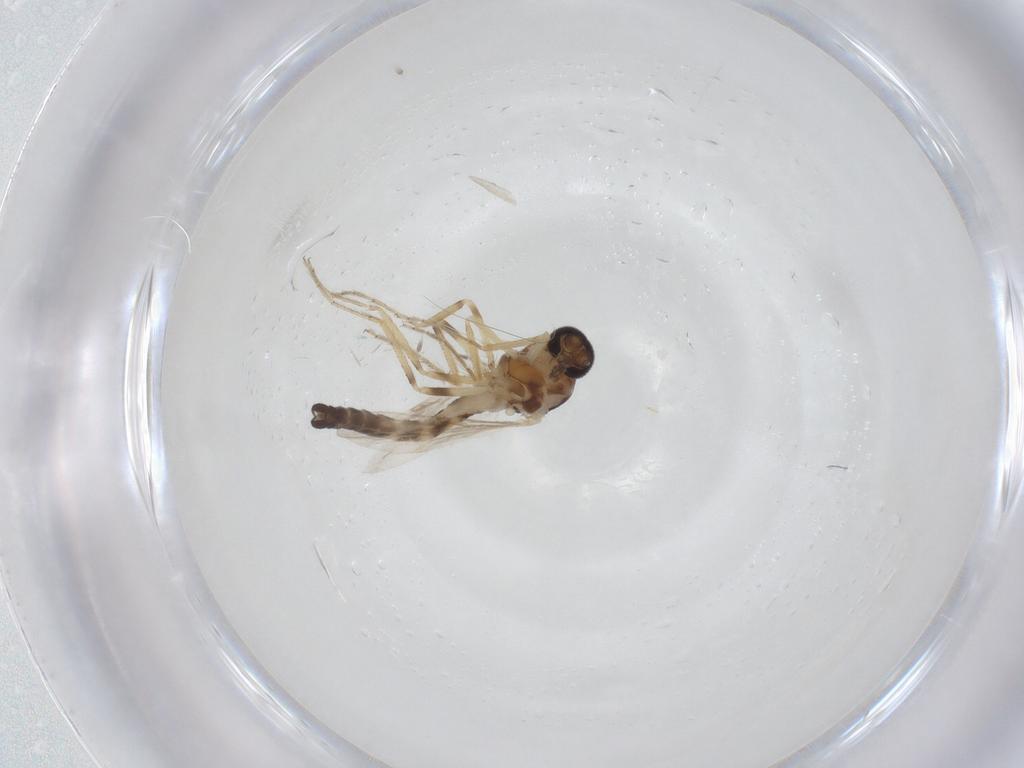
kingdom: Animalia
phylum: Arthropoda
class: Insecta
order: Diptera
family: Ceratopogonidae
